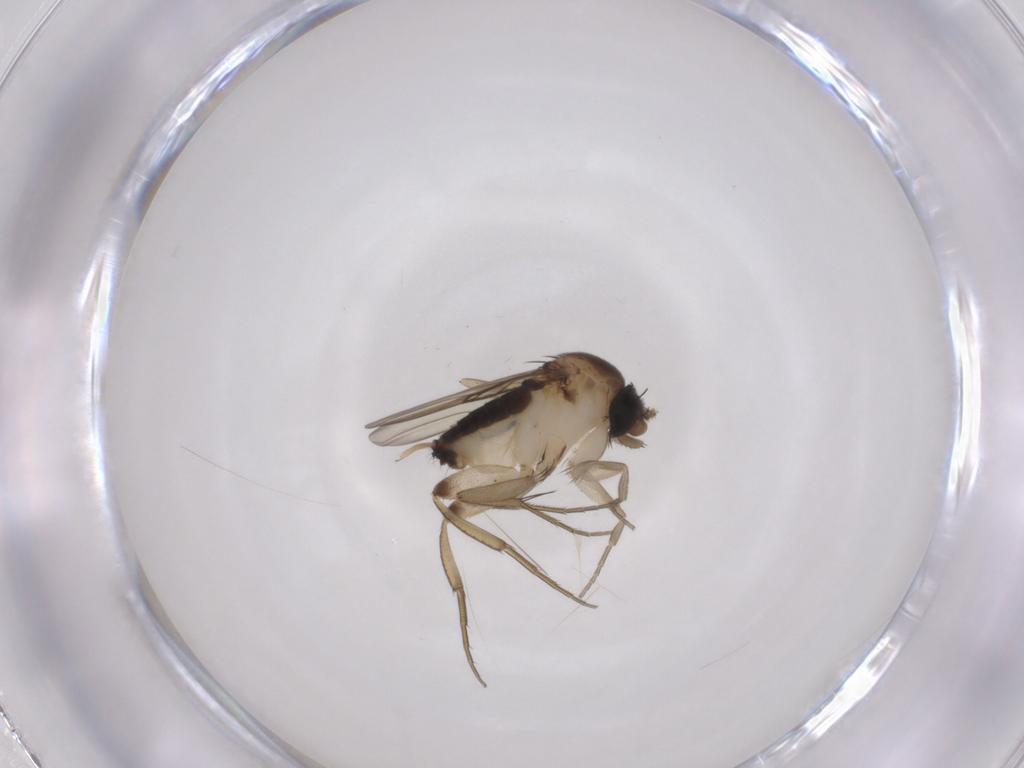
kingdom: Animalia
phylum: Arthropoda
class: Insecta
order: Diptera
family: Phoridae
